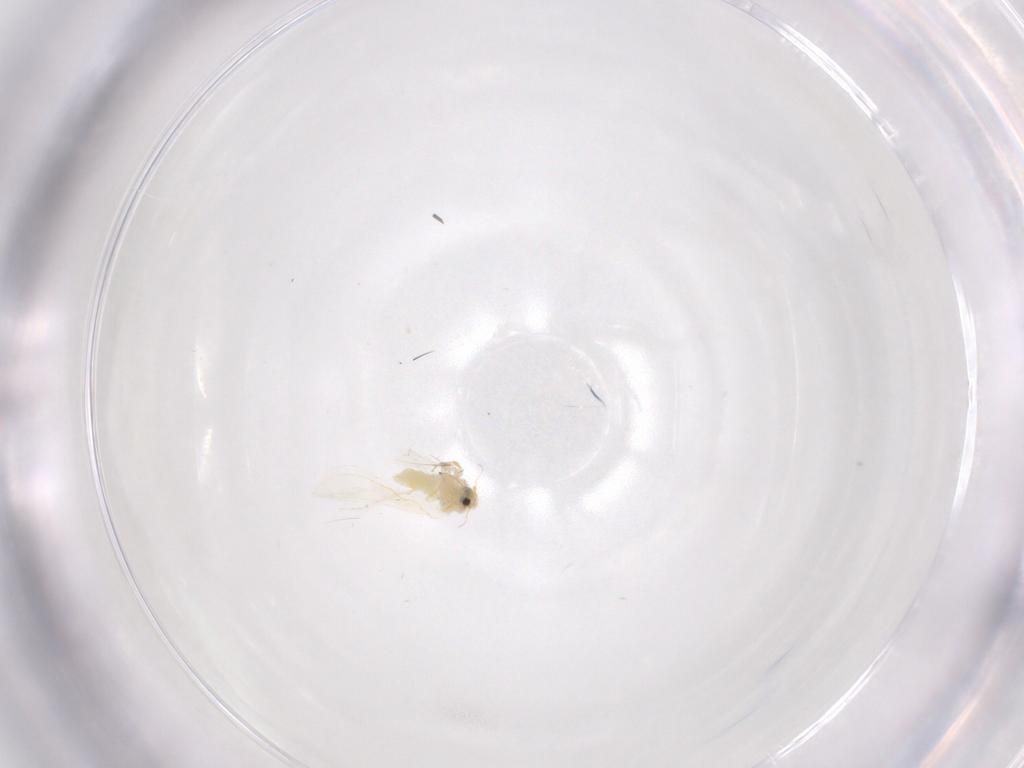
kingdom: Animalia
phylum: Arthropoda
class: Insecta
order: Hemiptera
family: Aleyrodidae
